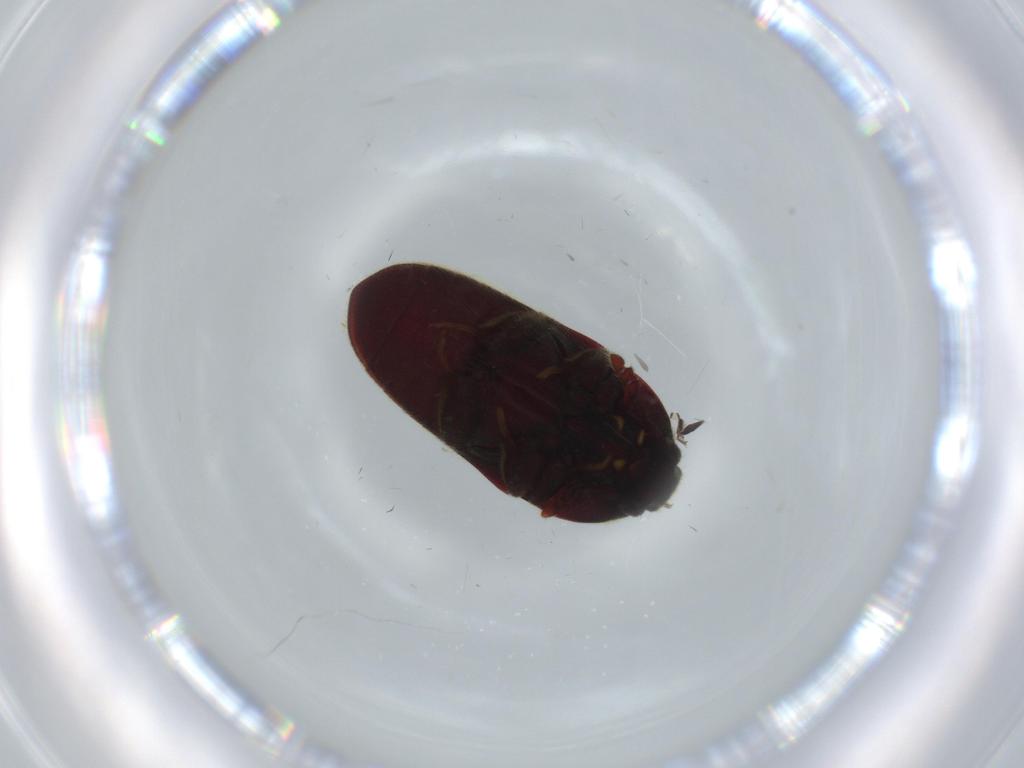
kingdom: Animalia
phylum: Arthropoda
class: Insecta
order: Coleoptera
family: Throscidae
